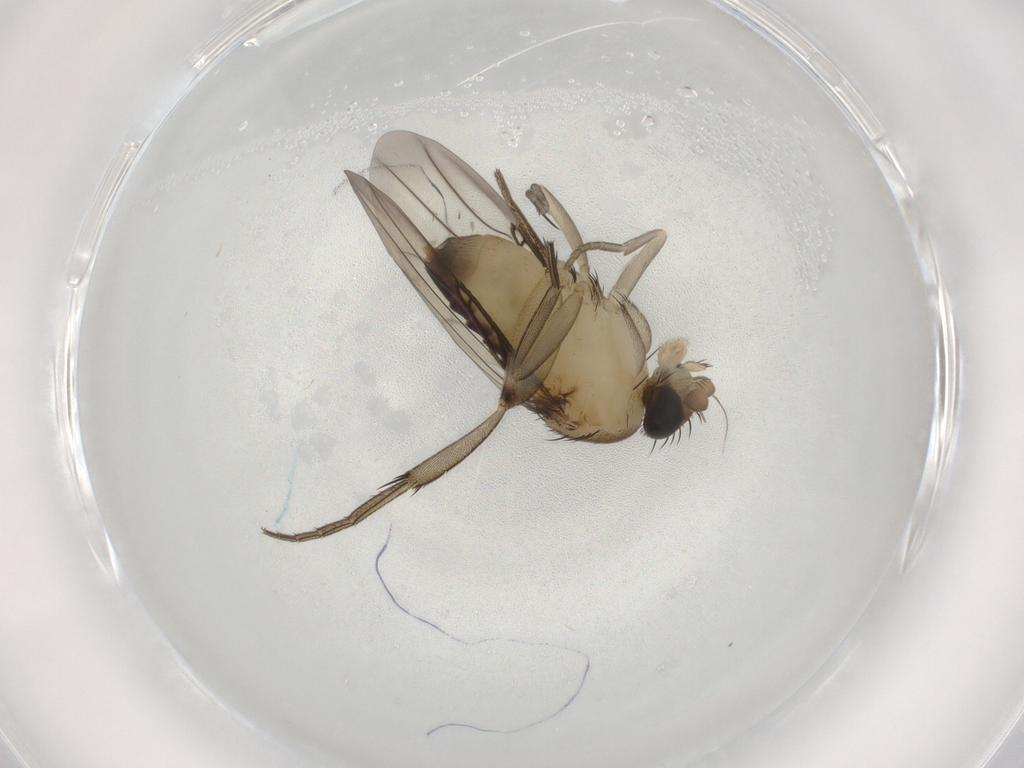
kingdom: Animalia
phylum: Arthropoda
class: Insecta
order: Diptera
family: Phoridae
